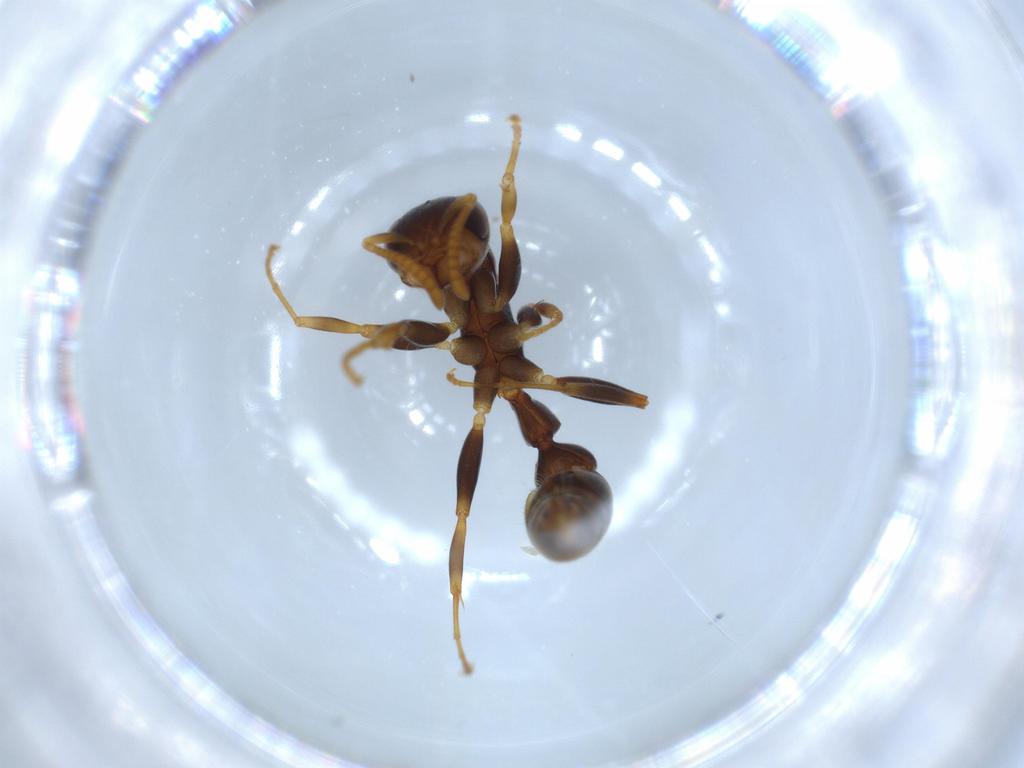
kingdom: Animalia
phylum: Arthropoda
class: Insecta
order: Hymenoptera
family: Formicidae
